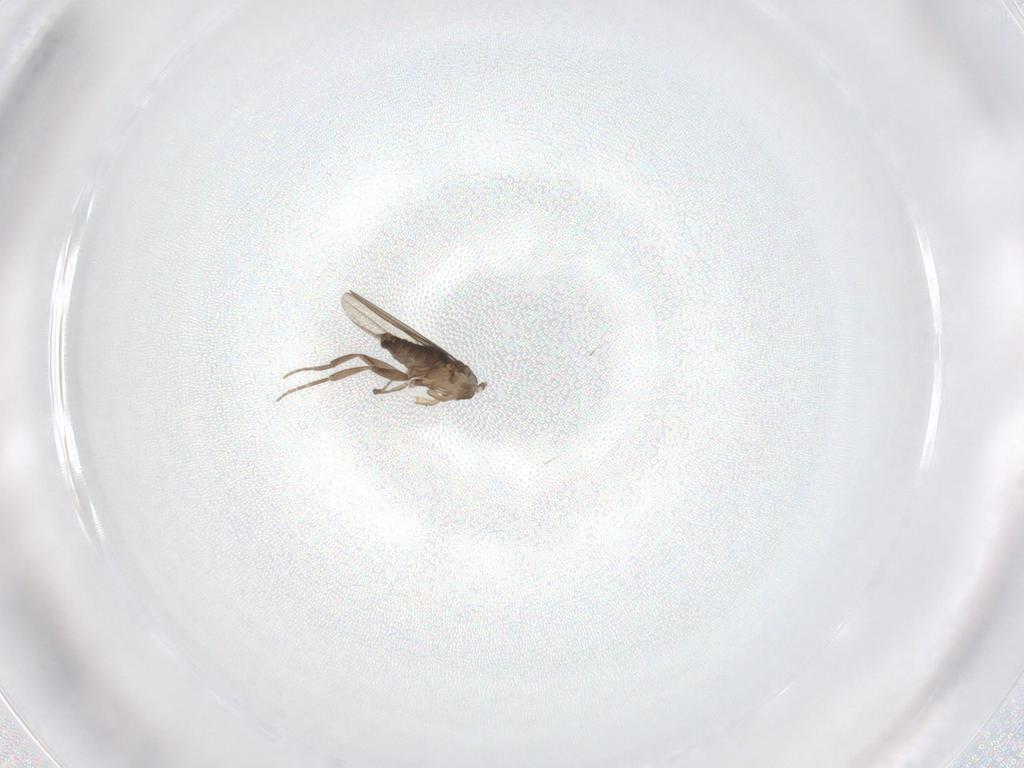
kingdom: Animalia
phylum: Arthropoda
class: Insecta
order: Diptera
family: Phoridae
